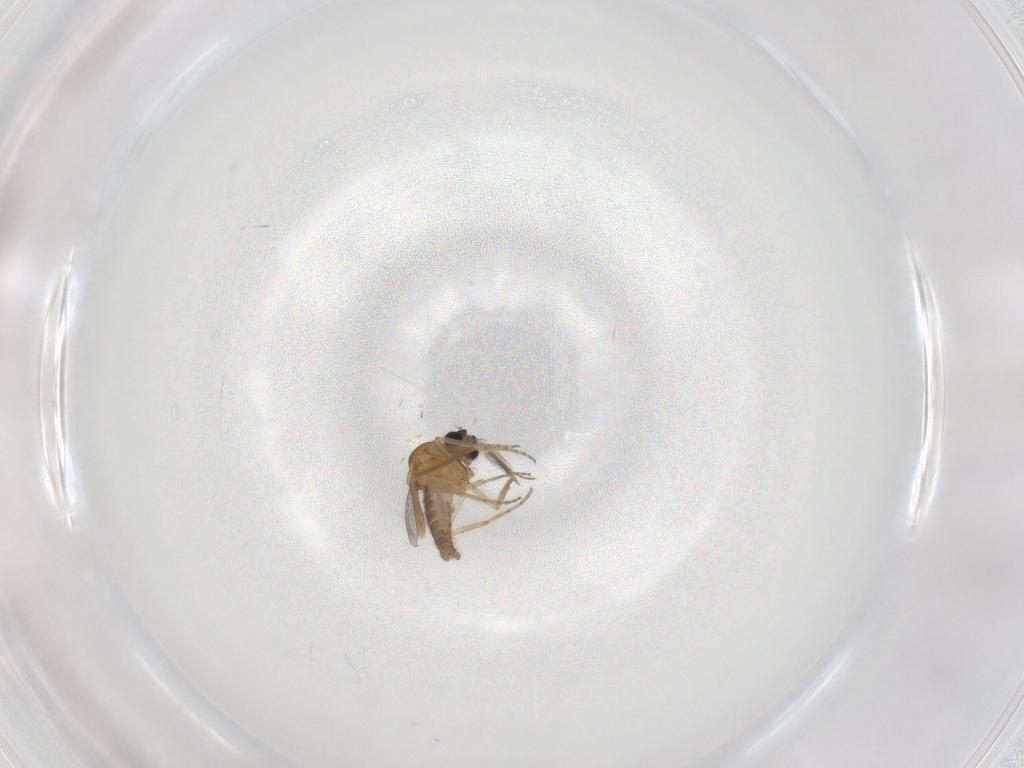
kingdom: Animalia
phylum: Arthropoda
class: Insecta
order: Diptera
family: Ceratopogonidae
